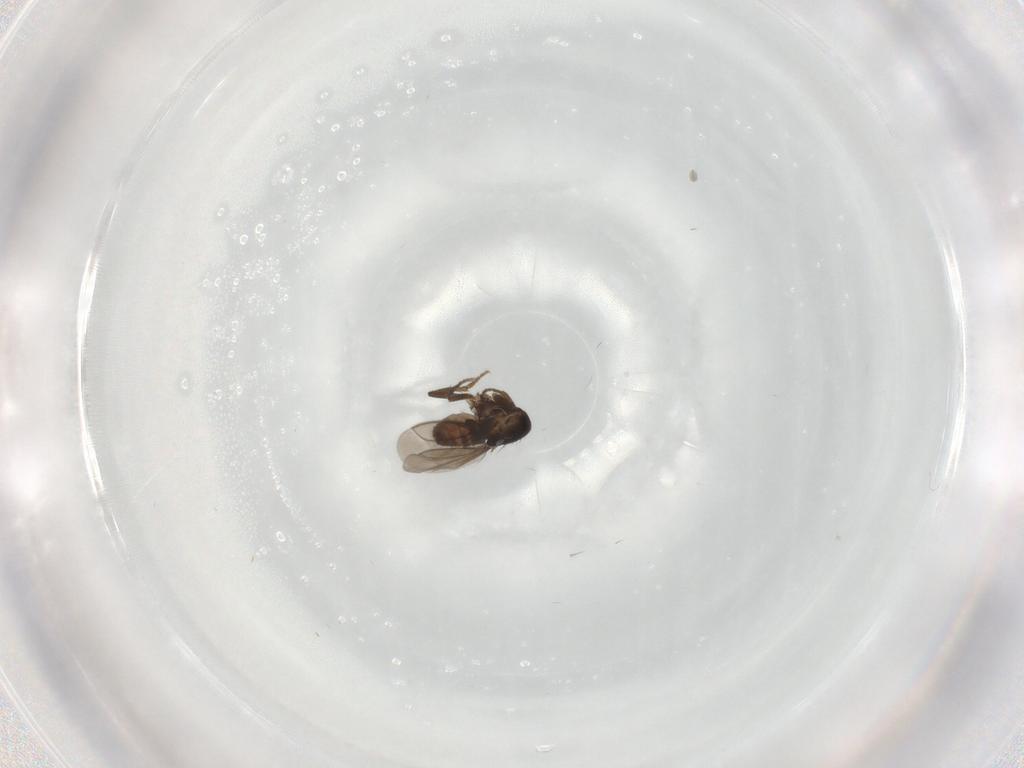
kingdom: Animalia
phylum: Arthropoda
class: Insecta
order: Diptera
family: Sphaeroceridae
